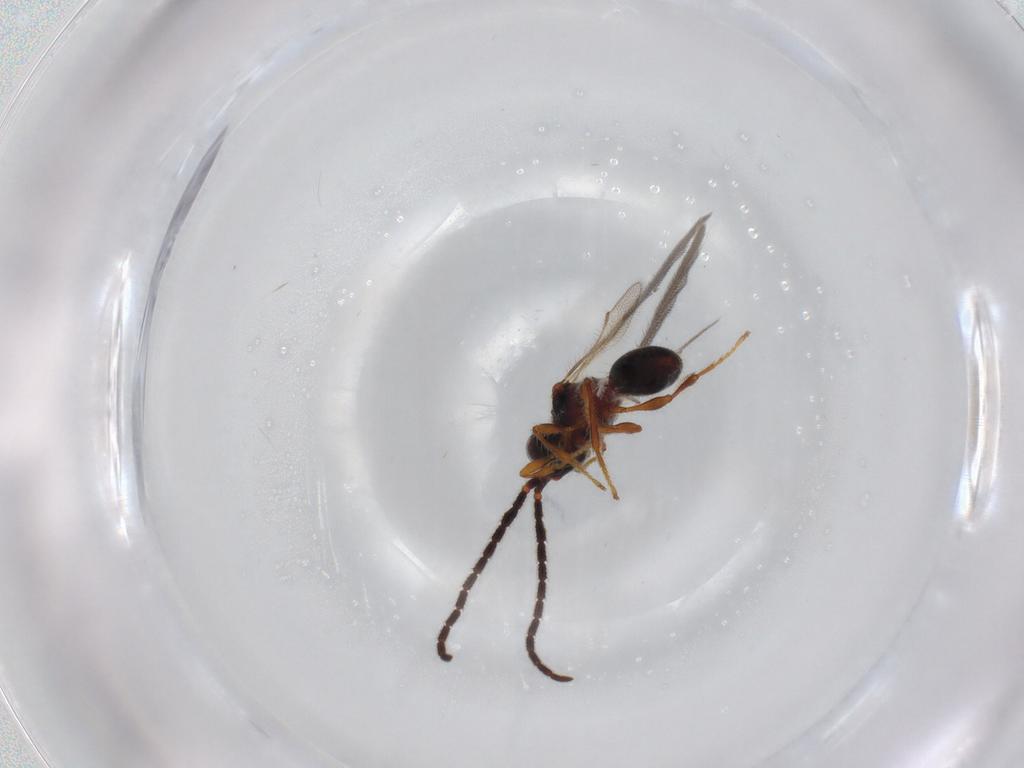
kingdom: Animalia
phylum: Arthropoda
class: Insecta
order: Hymenoptera
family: Diapriidae
